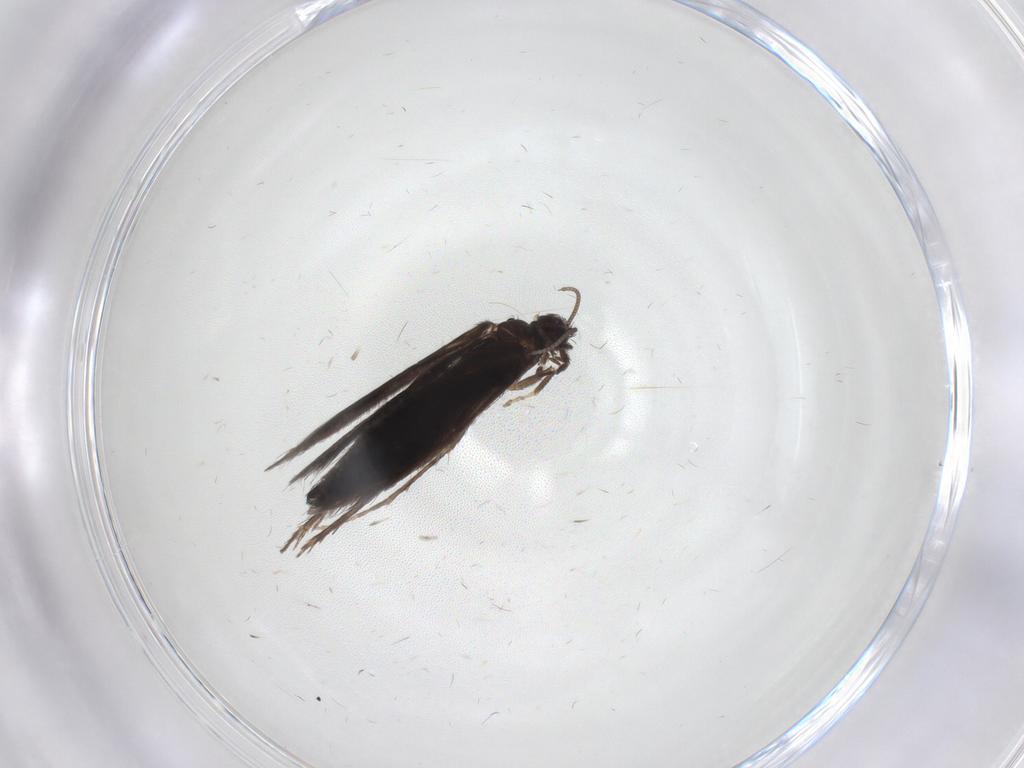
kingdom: Animalia
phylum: Arthropoda
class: Insecta
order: Trichoptera
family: Hydroptilidae
